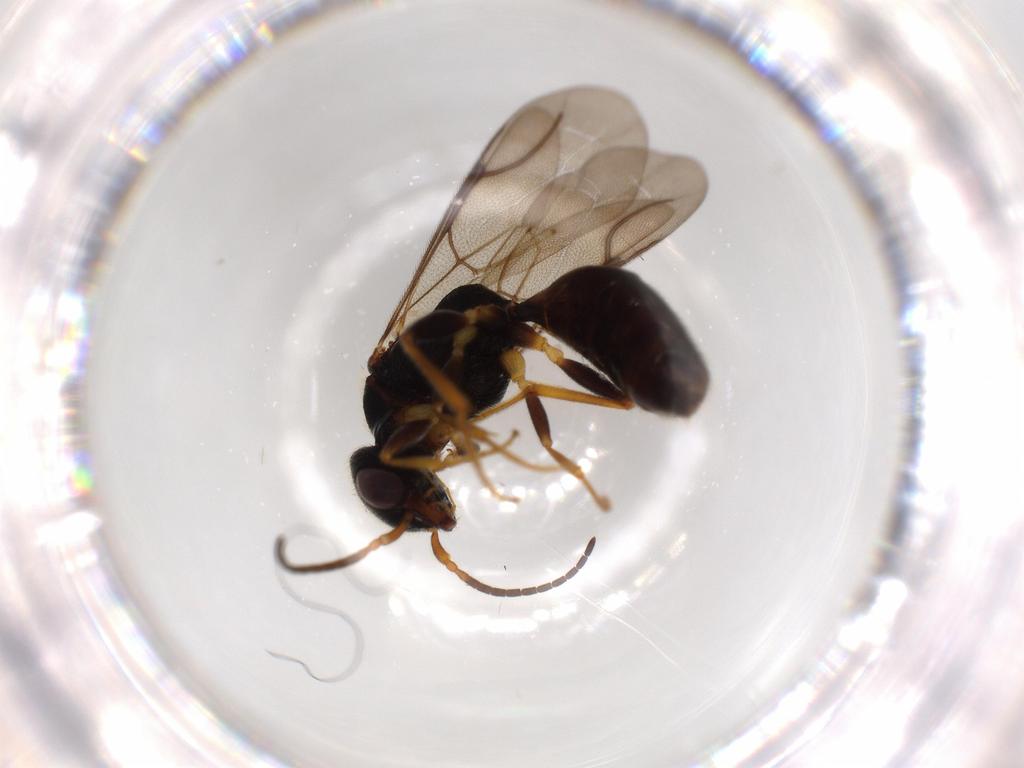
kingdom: Animalia
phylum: Arthropoda
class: Insecta
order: Hymenoptera
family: Bethylidae
